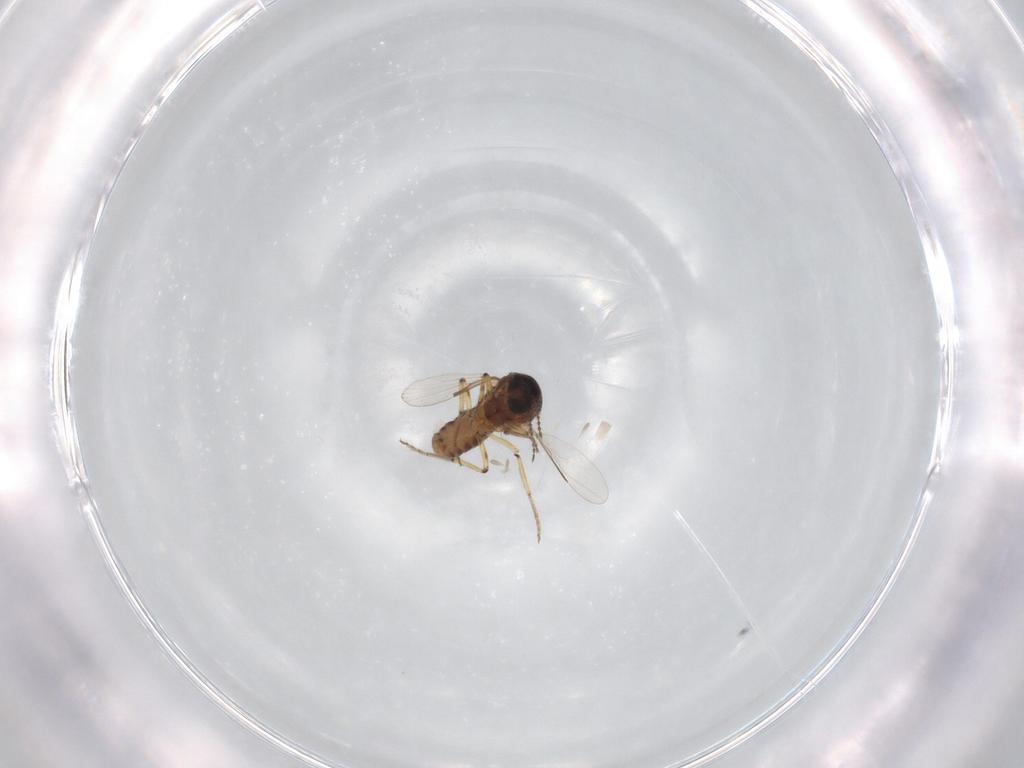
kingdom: Animalia
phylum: Arthropoda
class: Insecta
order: Diptera
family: Ceratopogonidae
